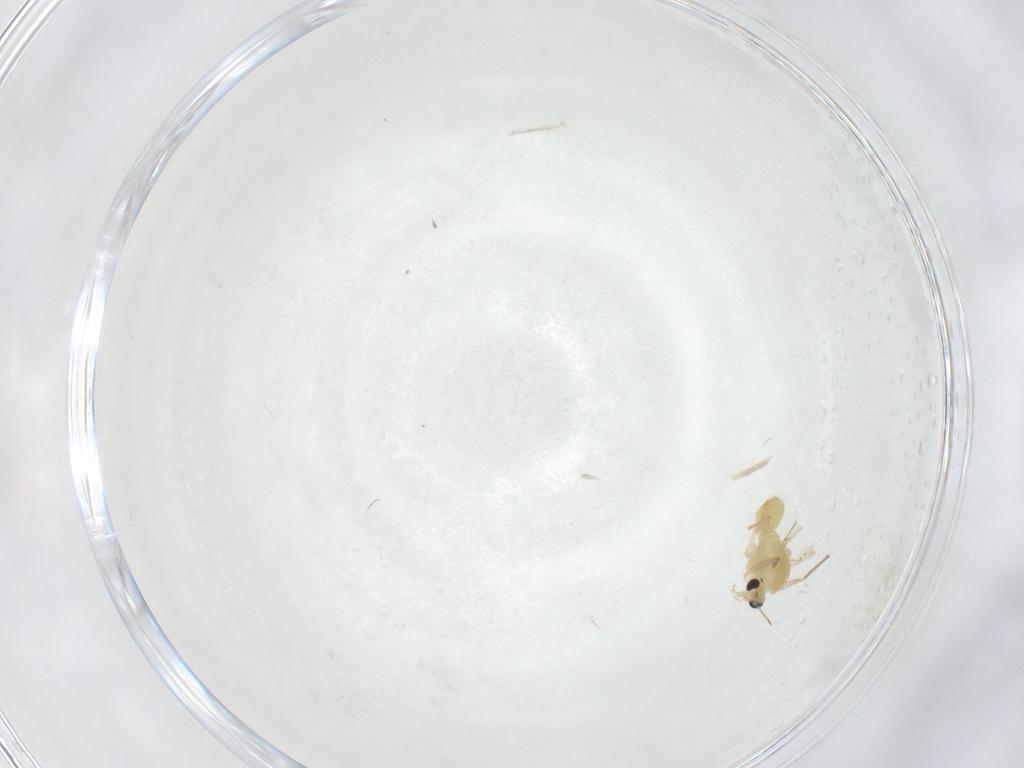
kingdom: Animalia
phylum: Arthropoda
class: Insecta
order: Diptera
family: Chironomidae
